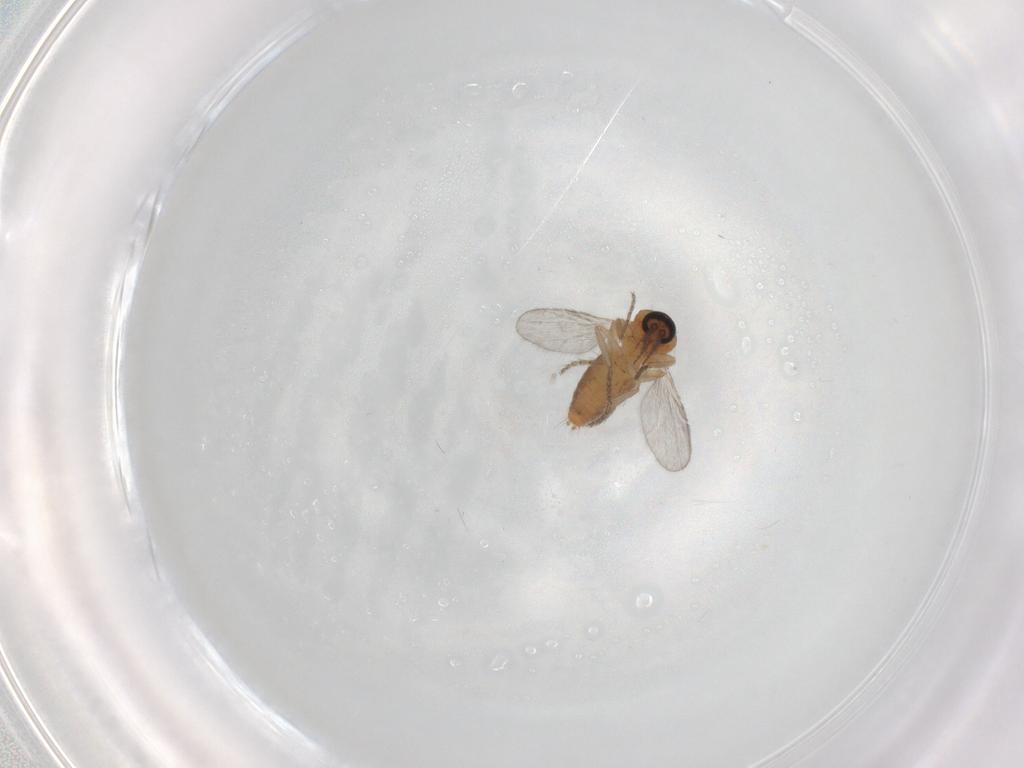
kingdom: Animalia
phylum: Arthropoda
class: Insecta
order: Diptera
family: Ceratopogonidae
